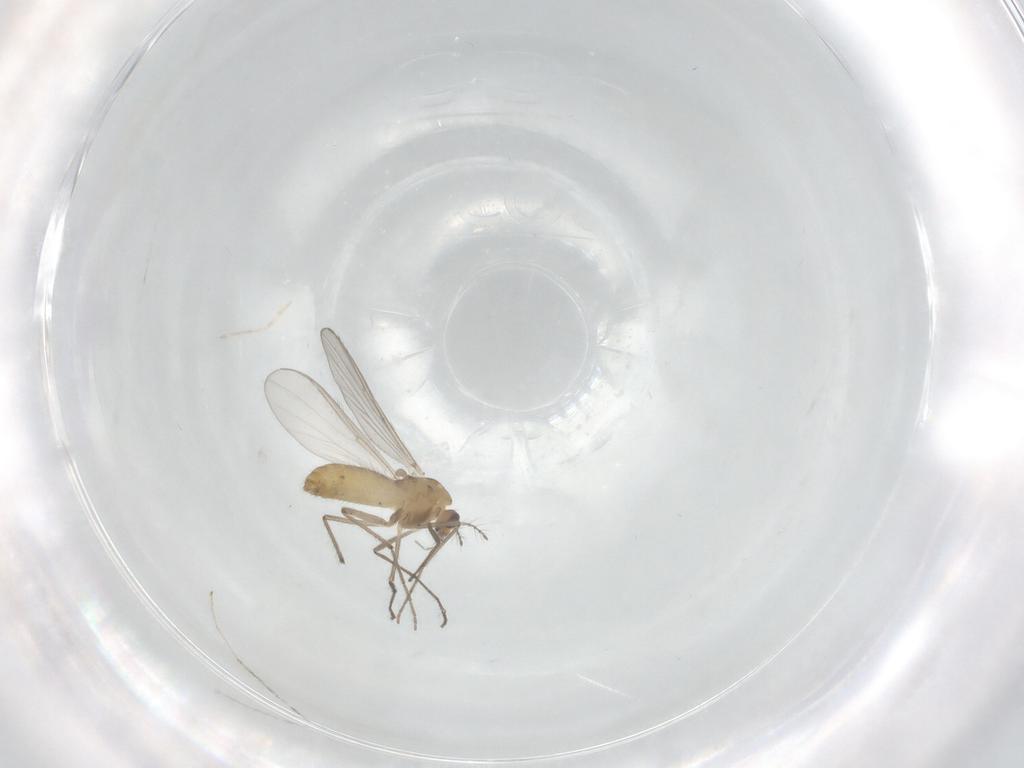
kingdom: Animalia
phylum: Arthropoda
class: Insecta
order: Diptera
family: Chironomidae
